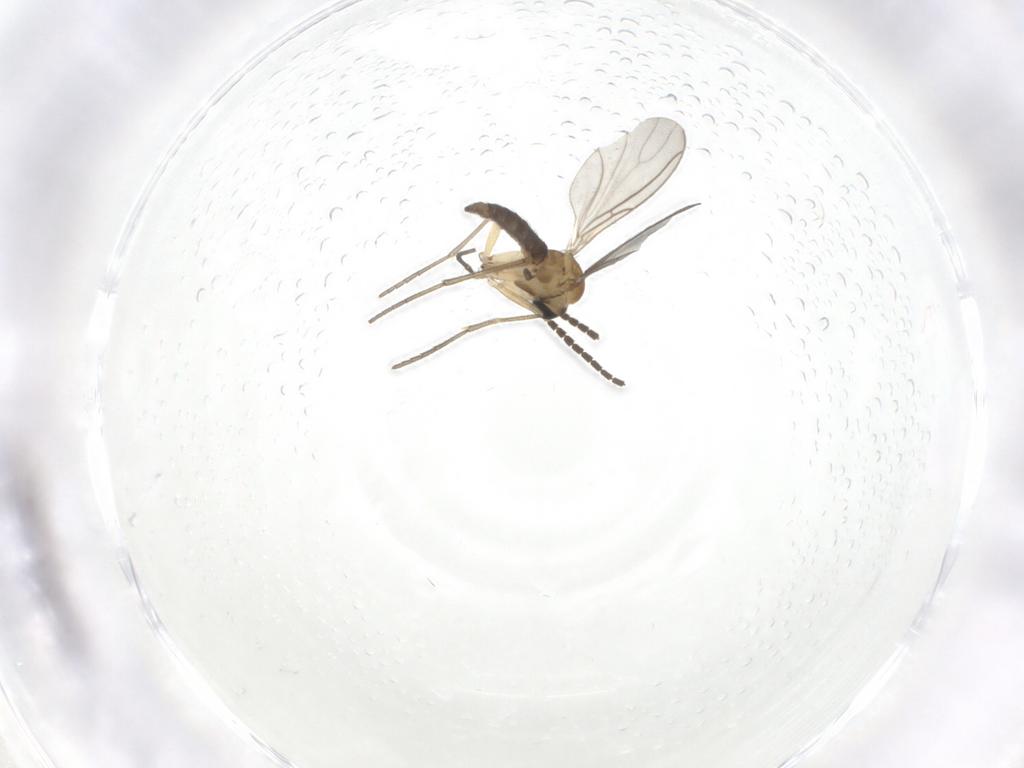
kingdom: Animalia
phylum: Arthropoda
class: Insecta
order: Diptera
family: Sciaridae
